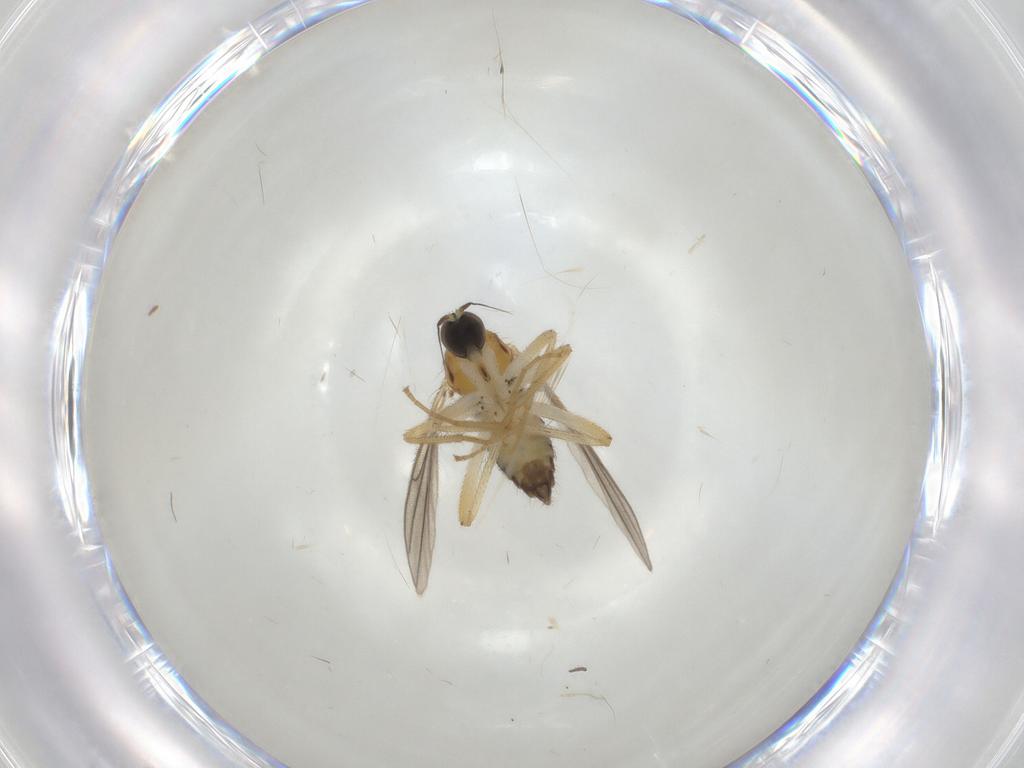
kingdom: Animalia
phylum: Arthropoda
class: Insecta
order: Diptera
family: Hybotidae
